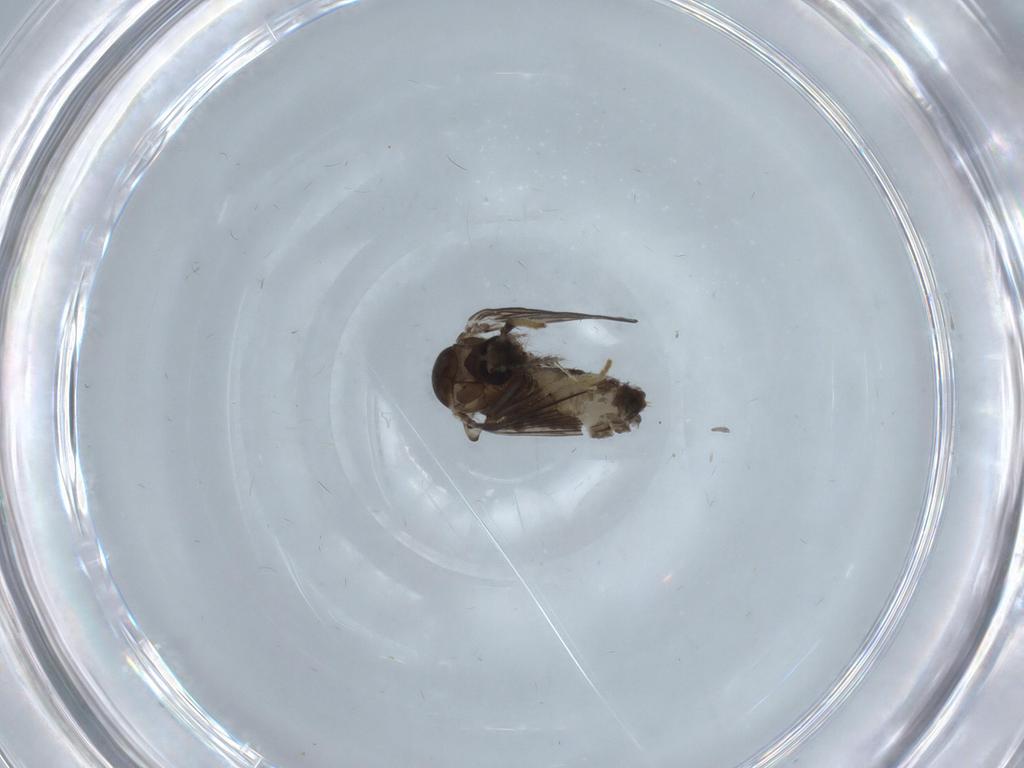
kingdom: Animalia
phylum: Arthropoda
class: Insecta
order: Diptera
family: Psychodidae
